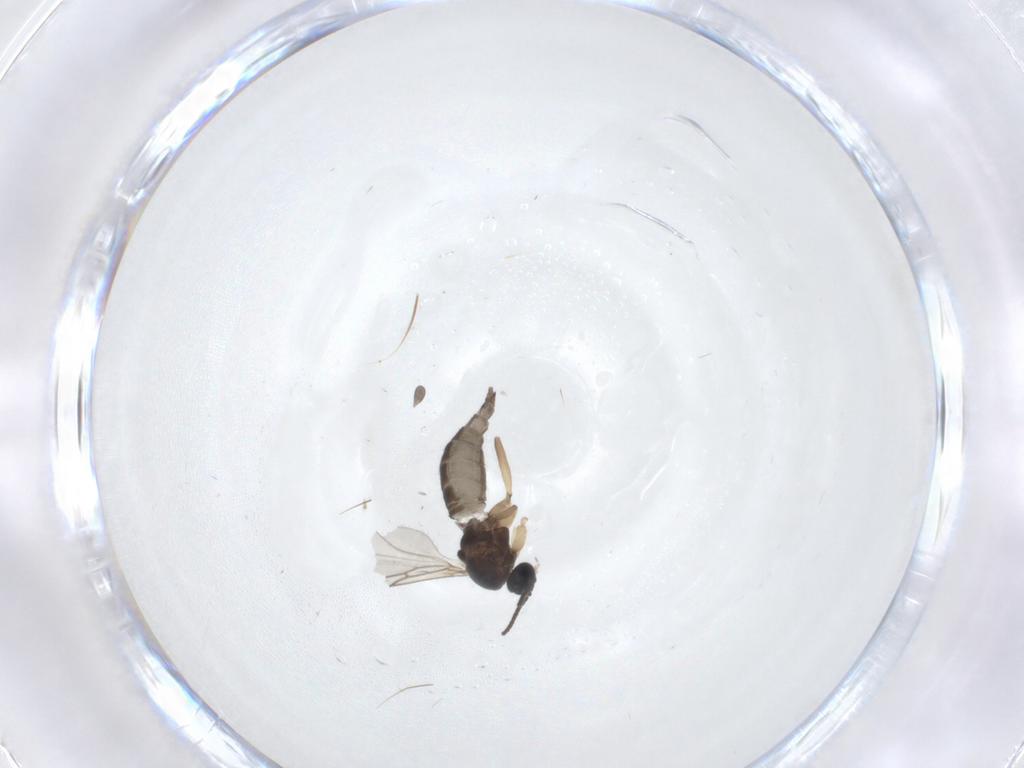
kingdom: Animalia
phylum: Arthropoda
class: Insecta
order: Diptera
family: Sciaridae
